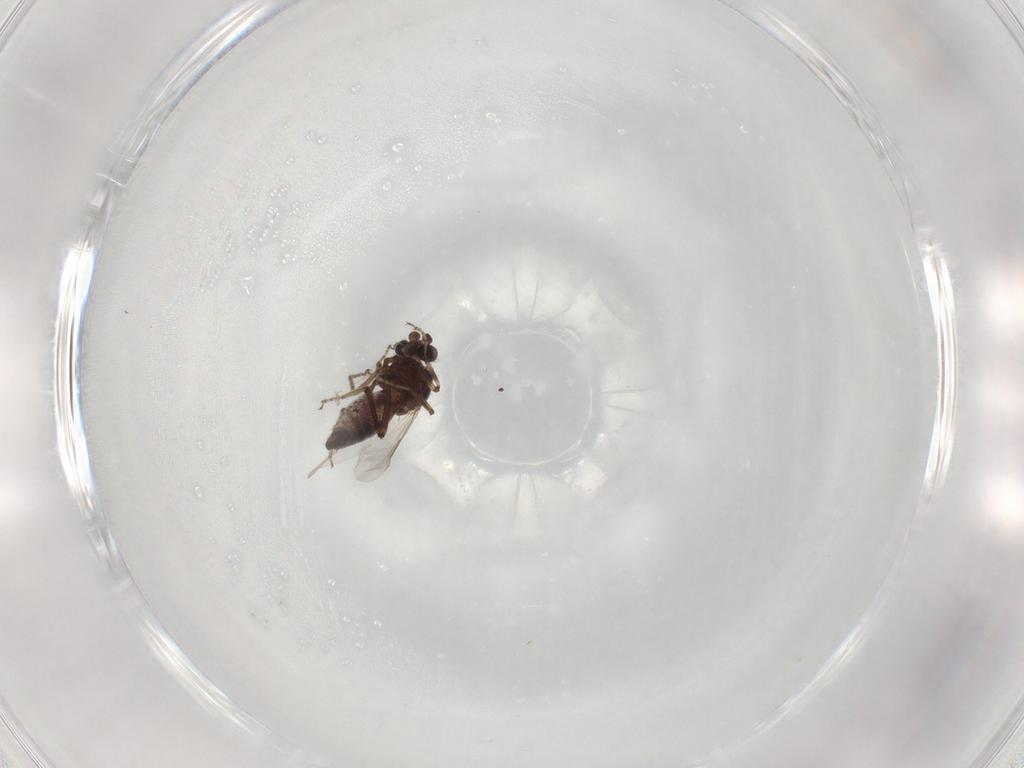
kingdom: Animalia
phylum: Arthropoda
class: Insecta
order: Diptera
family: Ceratopogonidae
